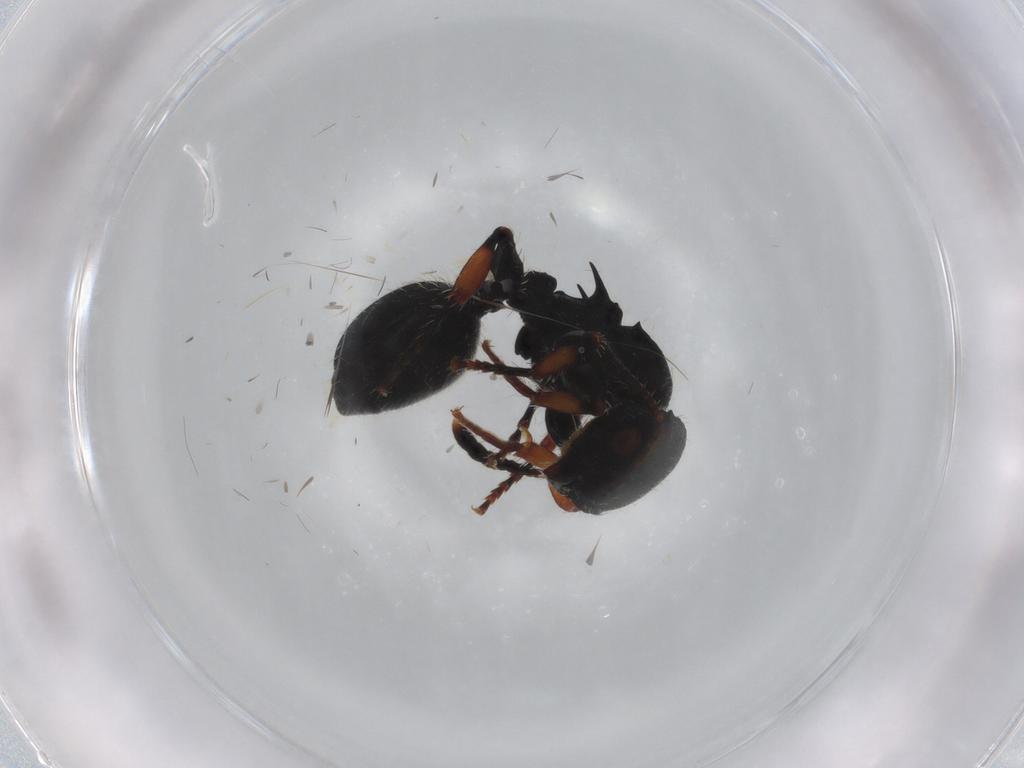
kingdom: Animalia
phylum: Arthropoda
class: Insecta
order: Hymenoptera
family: Formicidae
